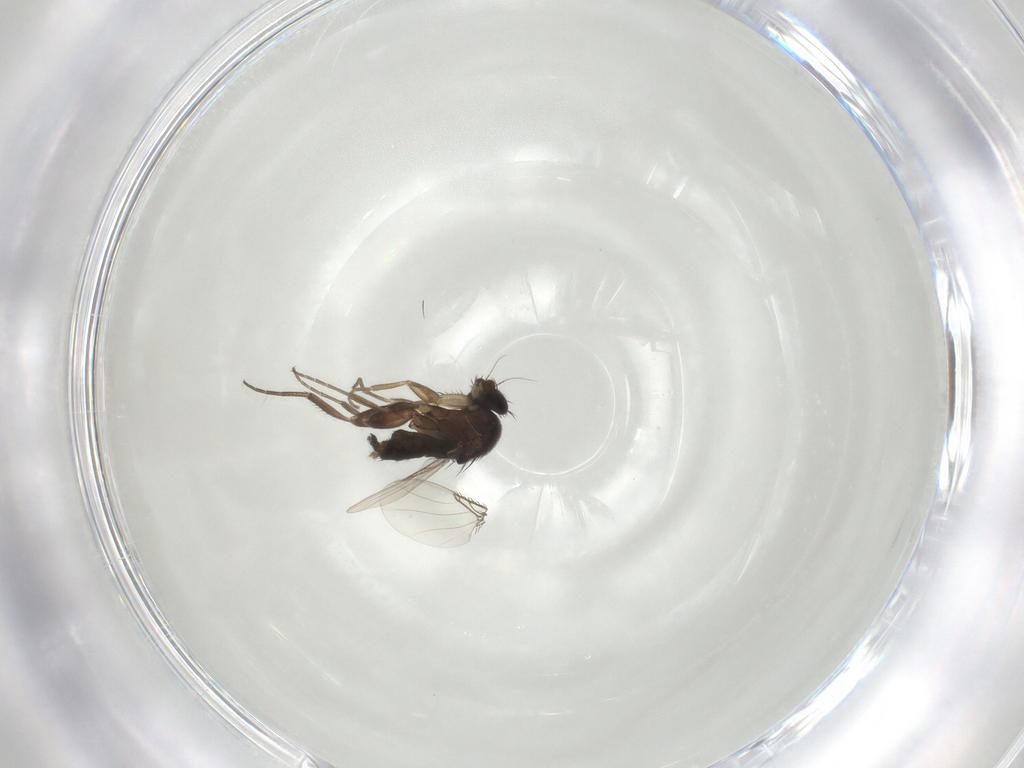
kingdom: Animalia
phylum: Arthropoda
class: Insecta
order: Diptera
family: Phoridae
